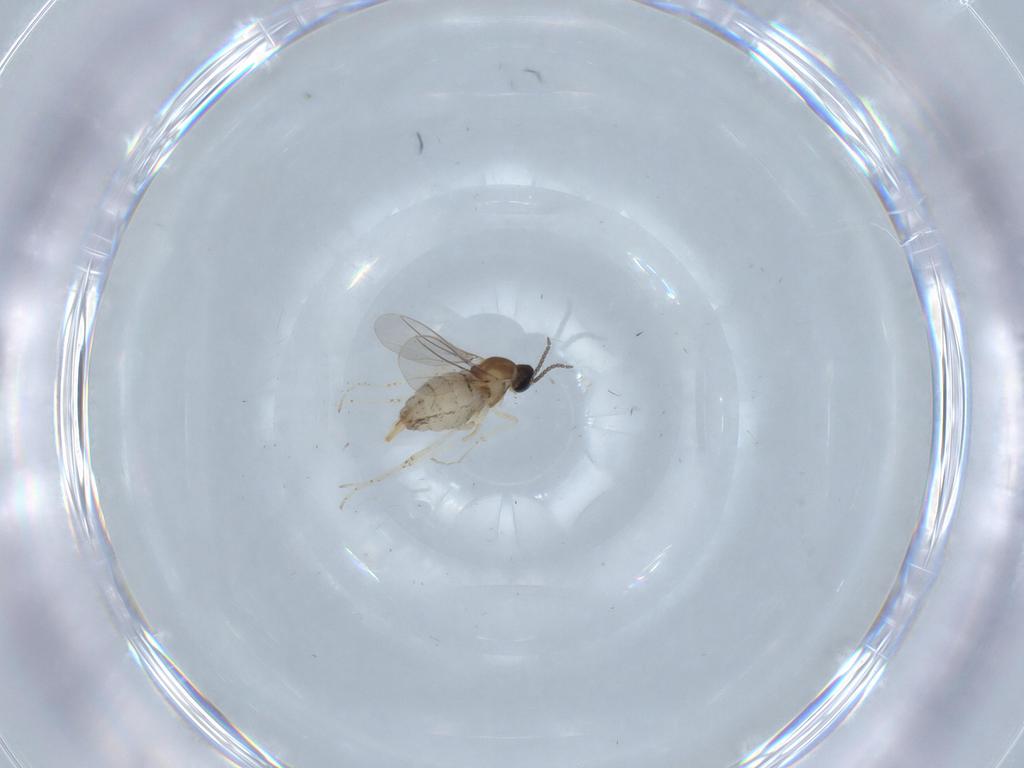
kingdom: Animalia
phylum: Arthropoda
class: Insecta
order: Diptera
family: Cecidomyiidae
